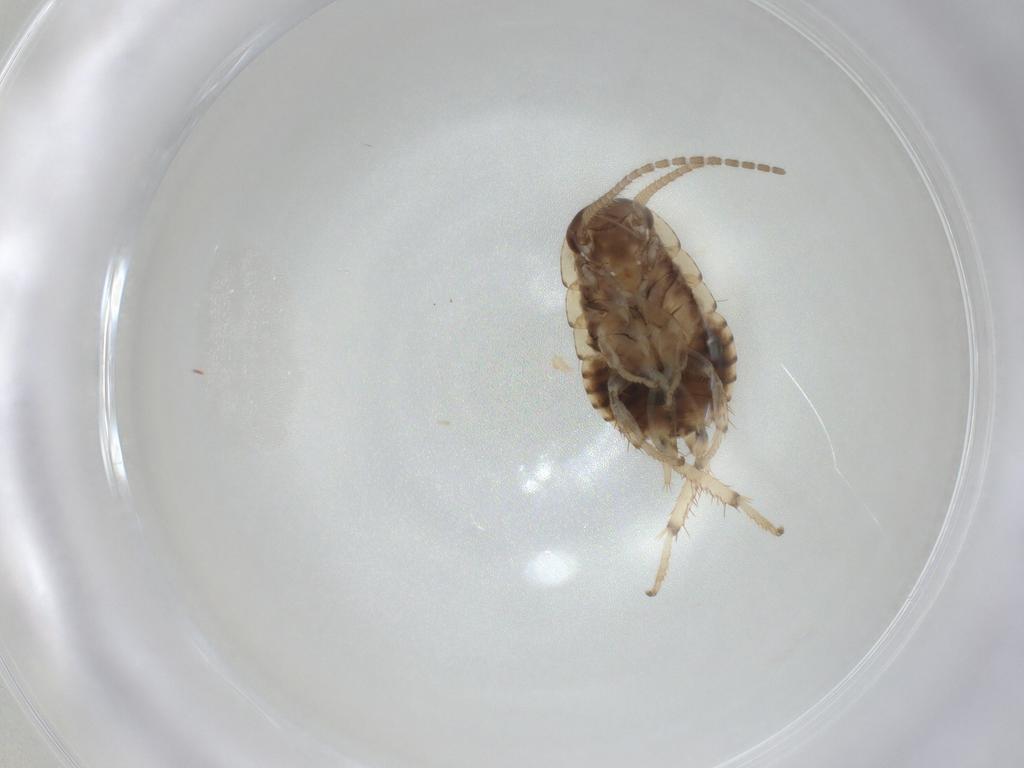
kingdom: Animalia
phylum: Arthropoda
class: Insecta
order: Blattodea
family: Blaberidae
